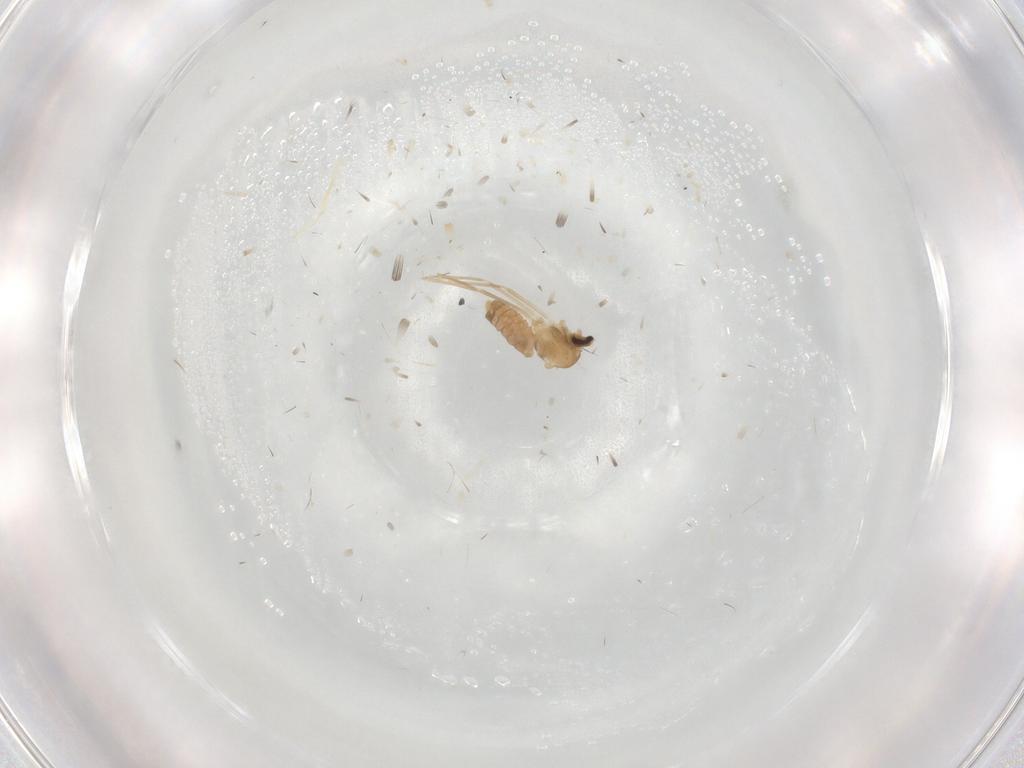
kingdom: Animalia
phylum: Arthropoda
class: Insecta
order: Diptera
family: Cecidomyiidae
